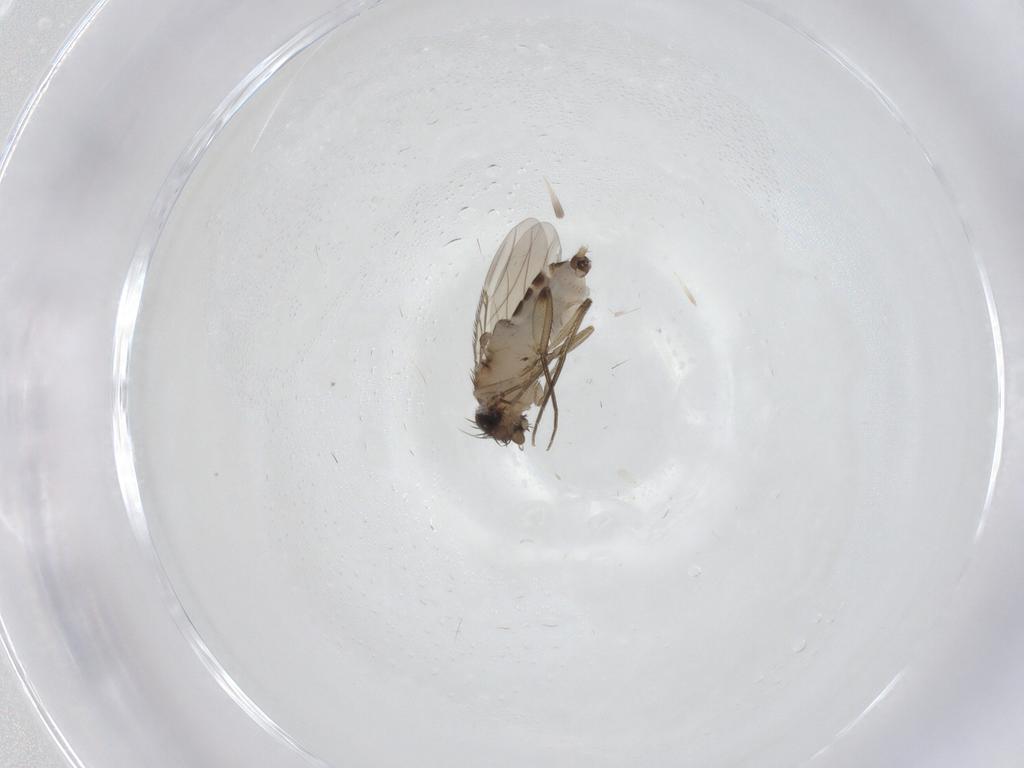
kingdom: Animalia
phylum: Arthropoda
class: Insecta
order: Diptera
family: Phoridae
